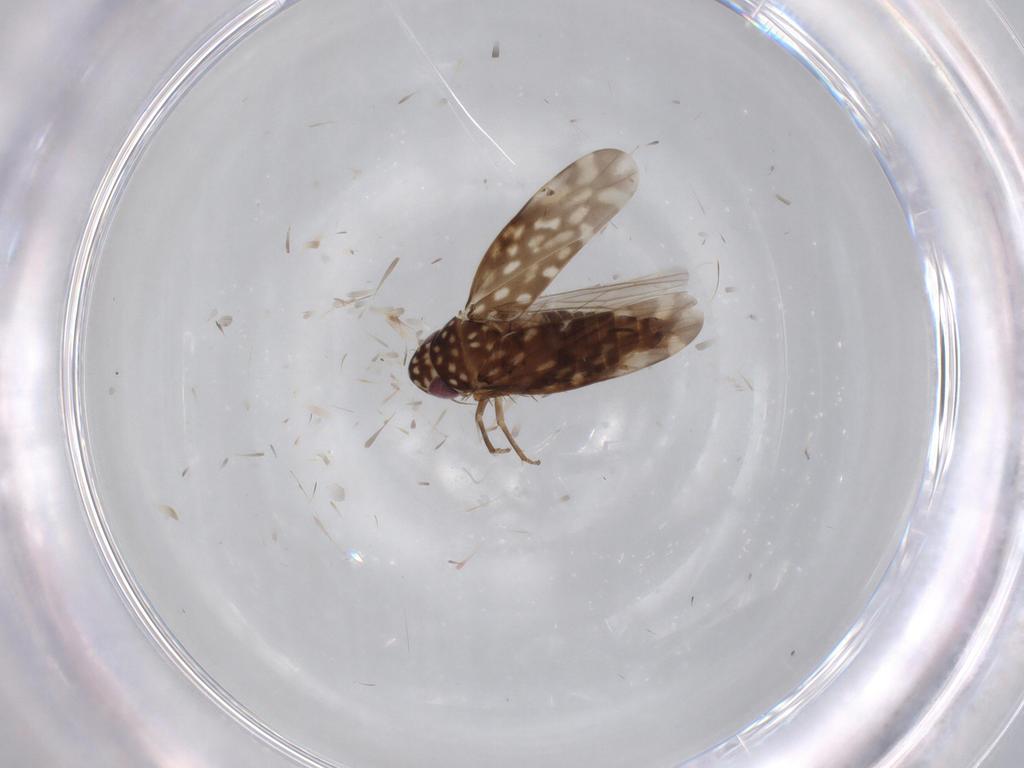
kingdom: Animalia
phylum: Arthropoda
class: Insecta
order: Hemiptera
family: Cicadellidae
